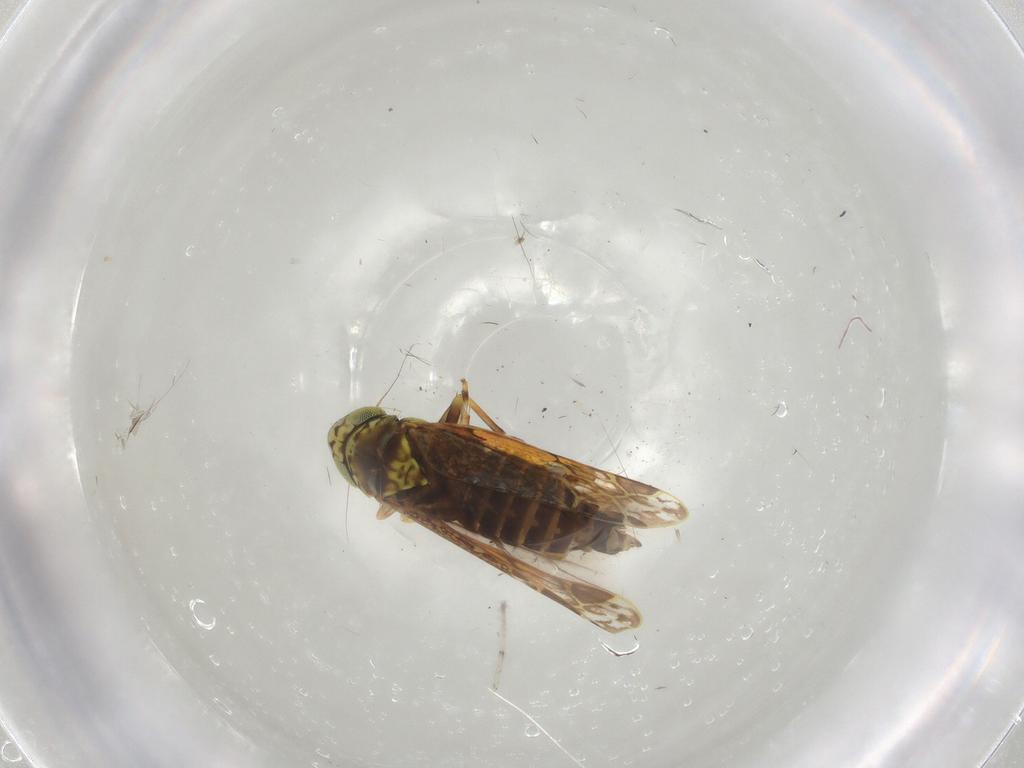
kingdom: Animalia
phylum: Arthropoda
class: Insecta
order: Hemiptera
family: Cicadellidae
